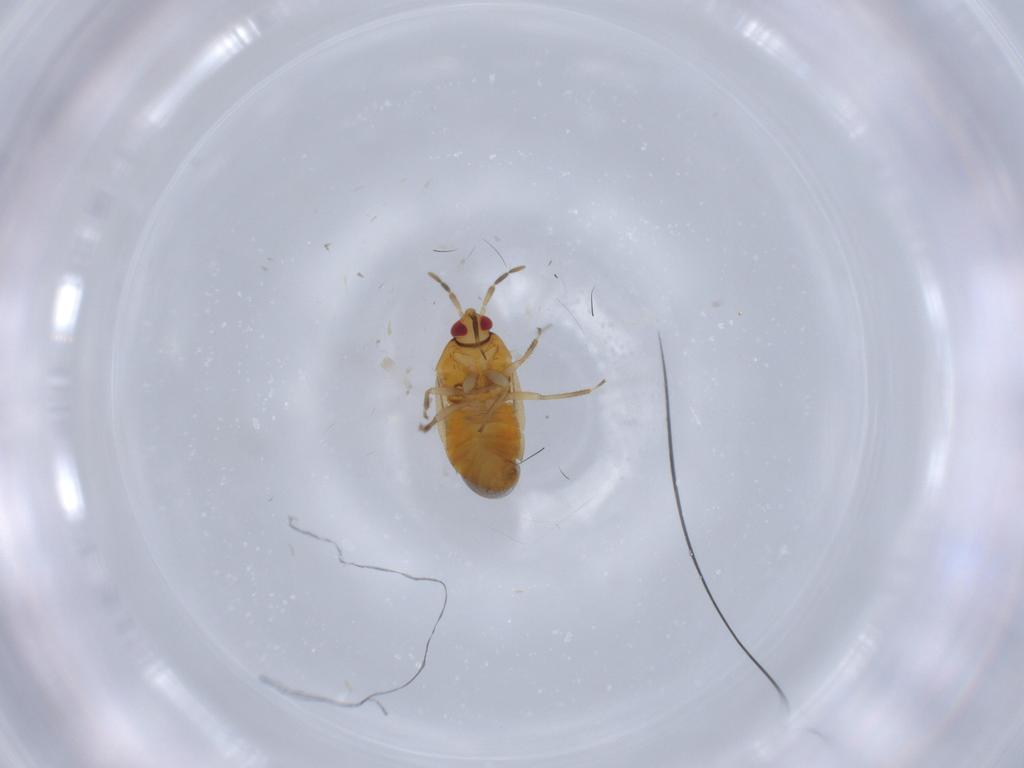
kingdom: Animalia
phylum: Arthropoda
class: Insecta
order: Hemiptera
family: Anthocoridae
